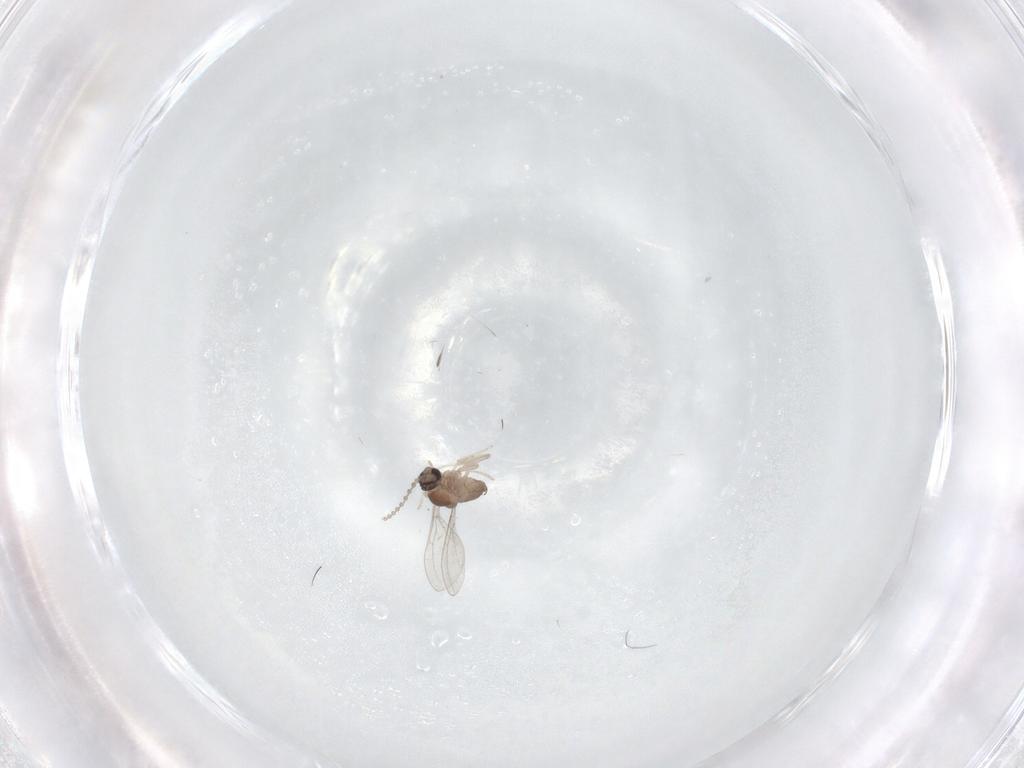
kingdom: Animalia
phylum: Arthropoda
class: Insecta
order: Diptera
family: Cecidomyiidae
